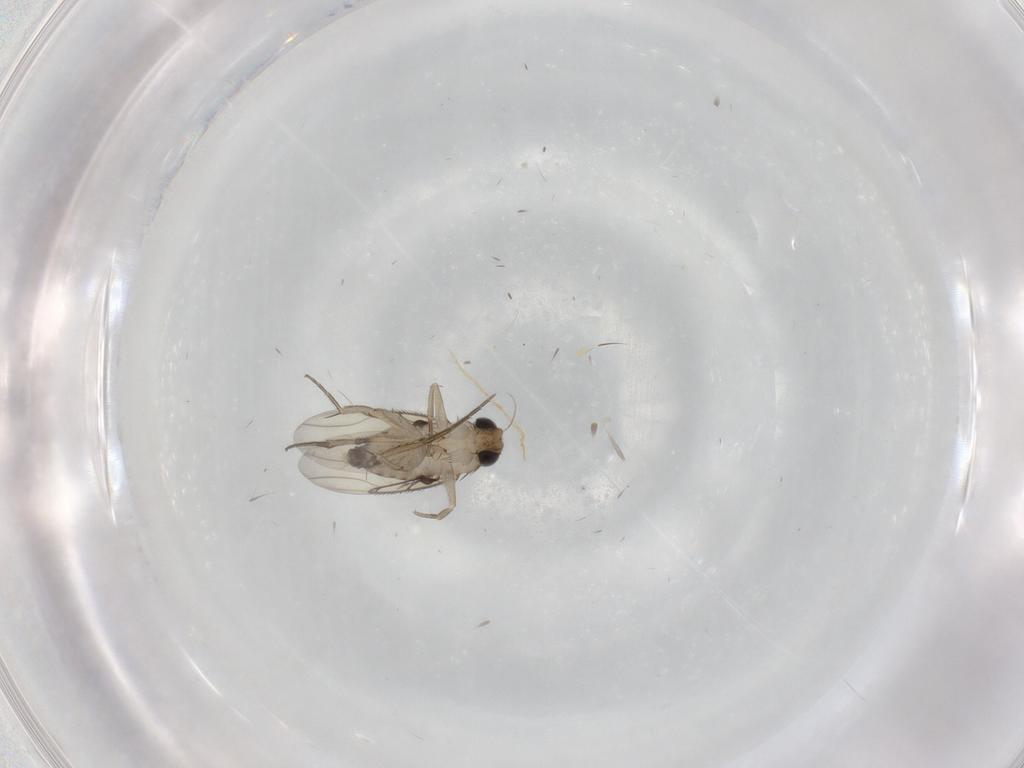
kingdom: Animalia
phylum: Arthropoda
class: Insecta
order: Diptera
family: Phoridae
